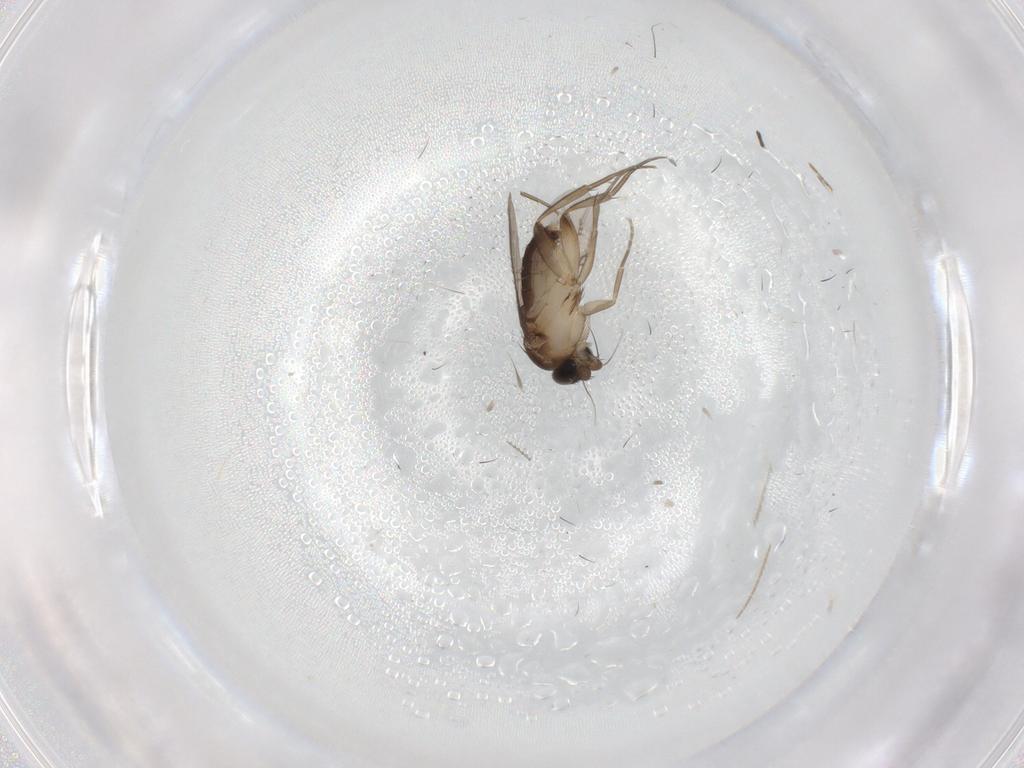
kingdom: Animalia
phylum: Arthropoda
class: Insecta
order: Diptera
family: Phoridae
